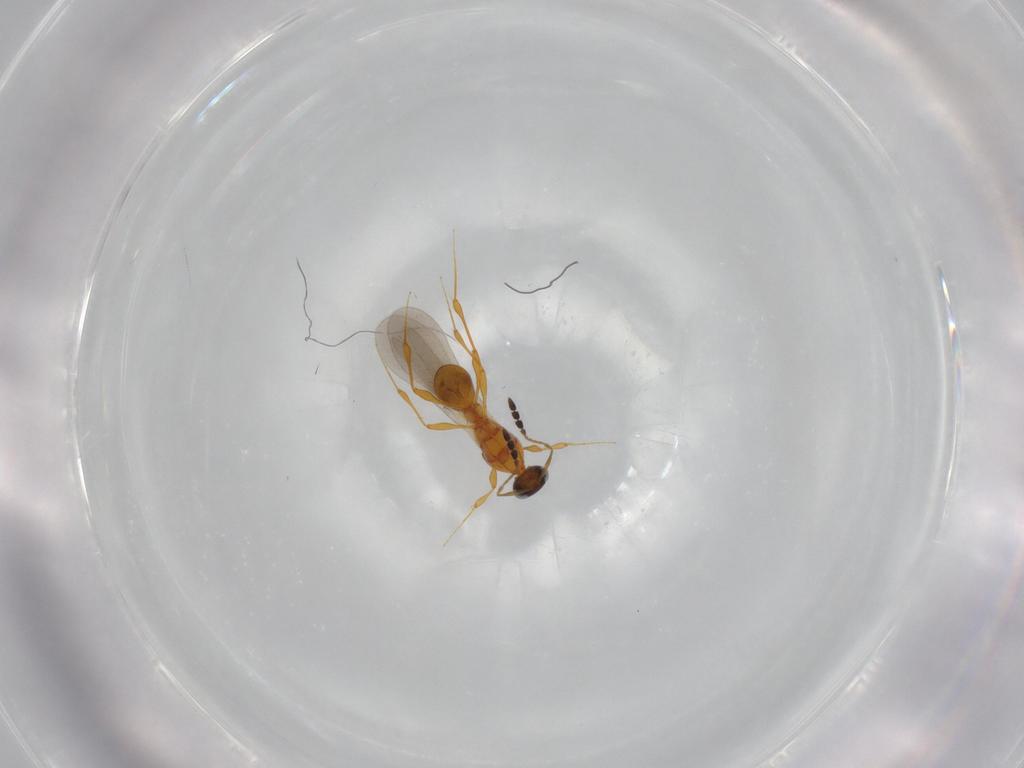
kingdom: Animalia
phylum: Arthropoda
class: Insecta
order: Hymenoptera
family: Platygastridae
